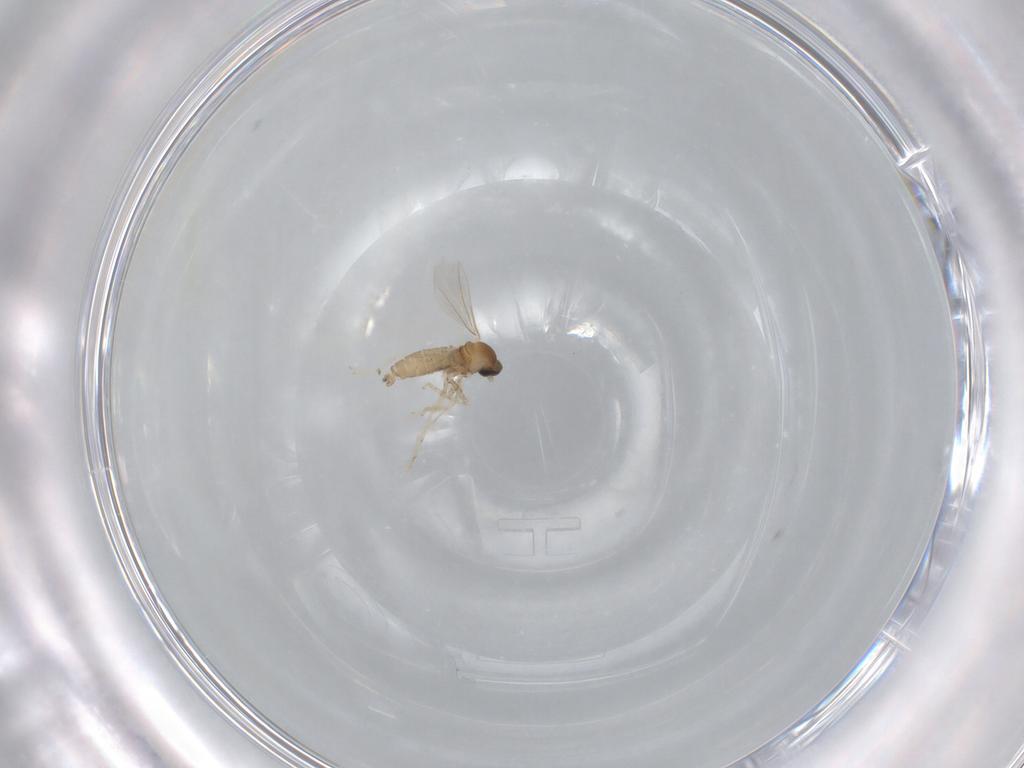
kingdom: Animalia
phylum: Arthropoda
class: Insecta
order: Diptera
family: Cecidomyiidae
